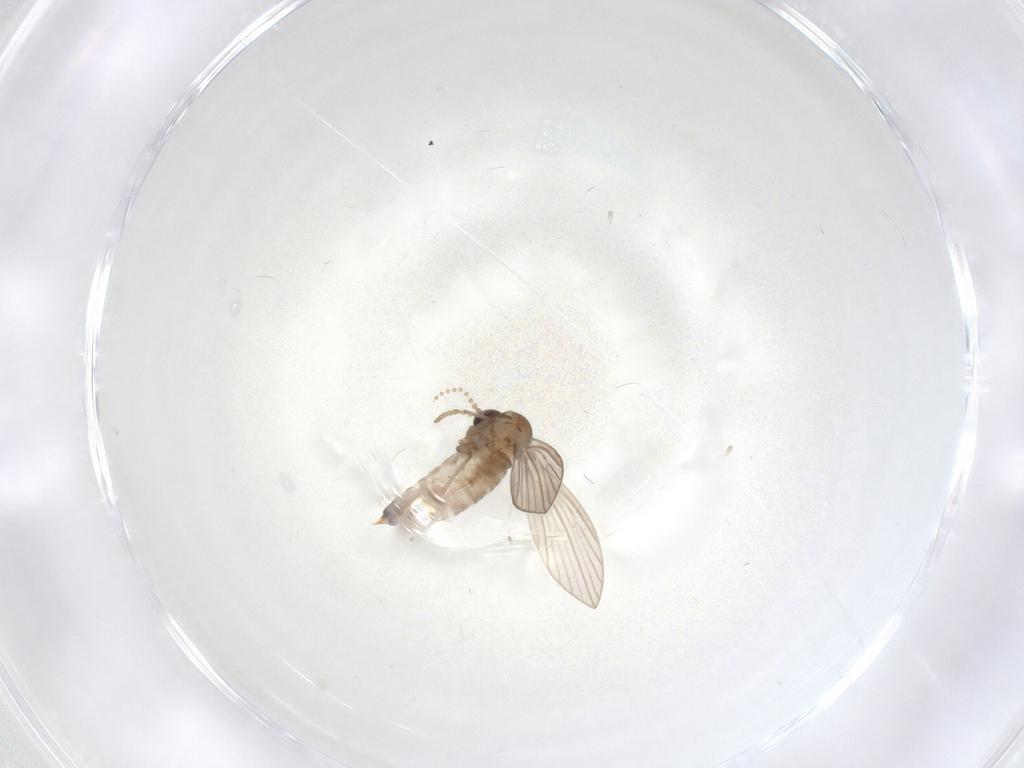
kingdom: Animalia
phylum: Arthropoda
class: Insecta
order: Diptera
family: Psychodidae
